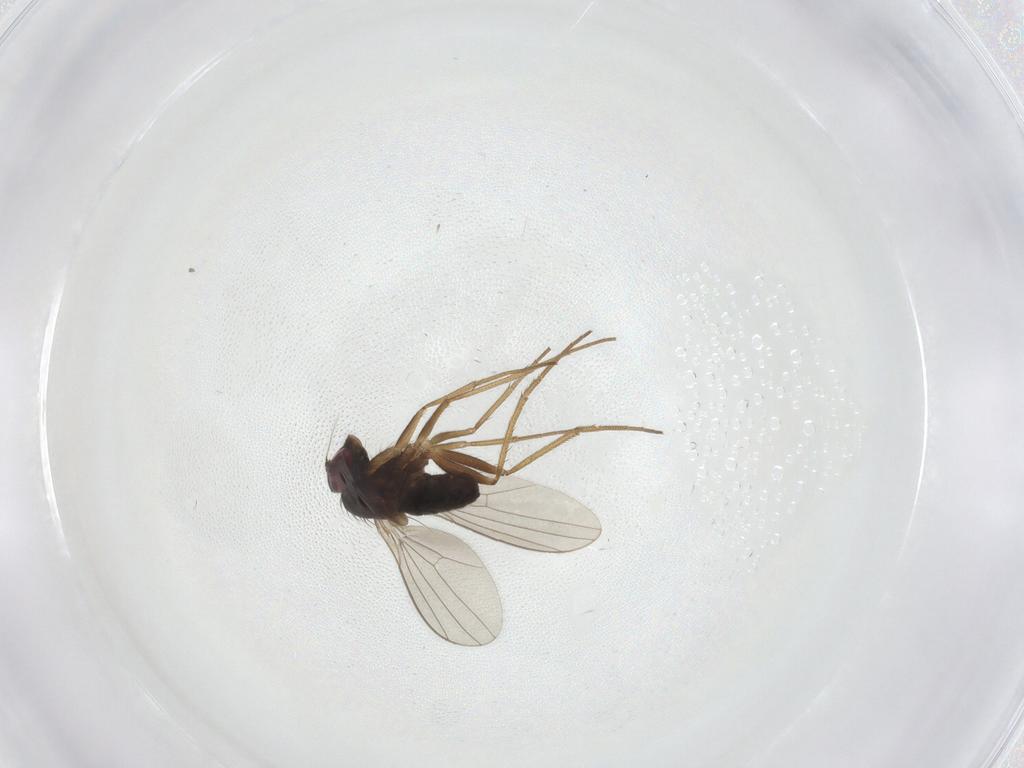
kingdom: Animalia
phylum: Arthropoda
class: Insecta
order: Diptera
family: Dolichopodidae
